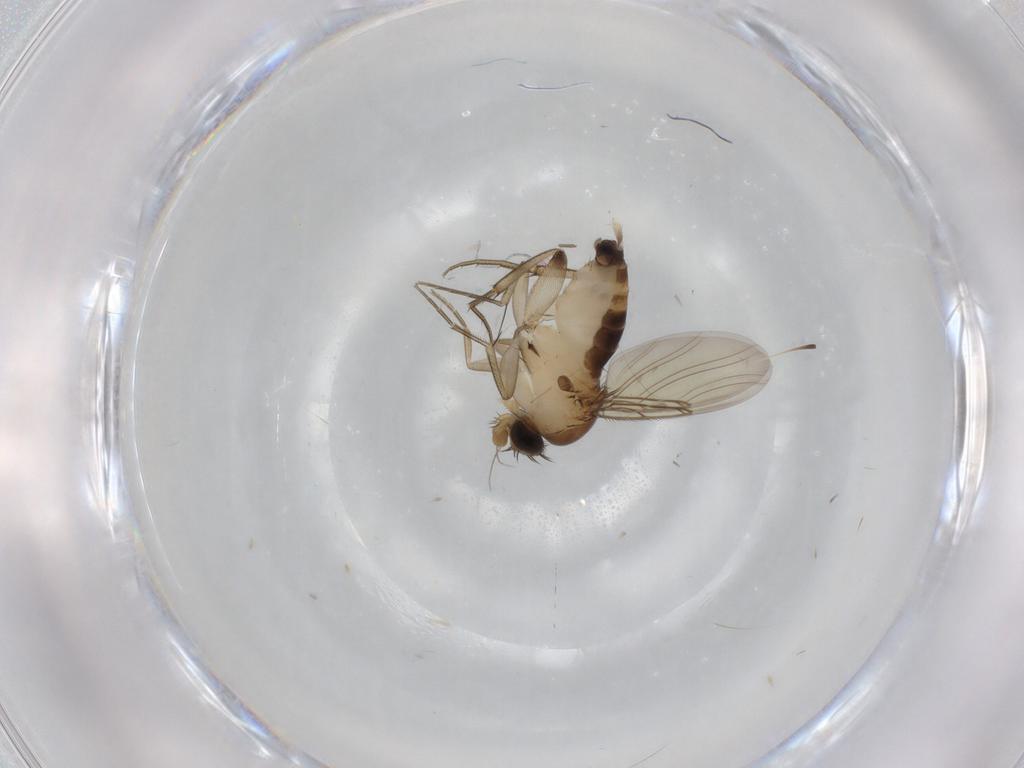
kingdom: Animalia
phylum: Arthropoda
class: Insecta
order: Diptera
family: Phoridae
